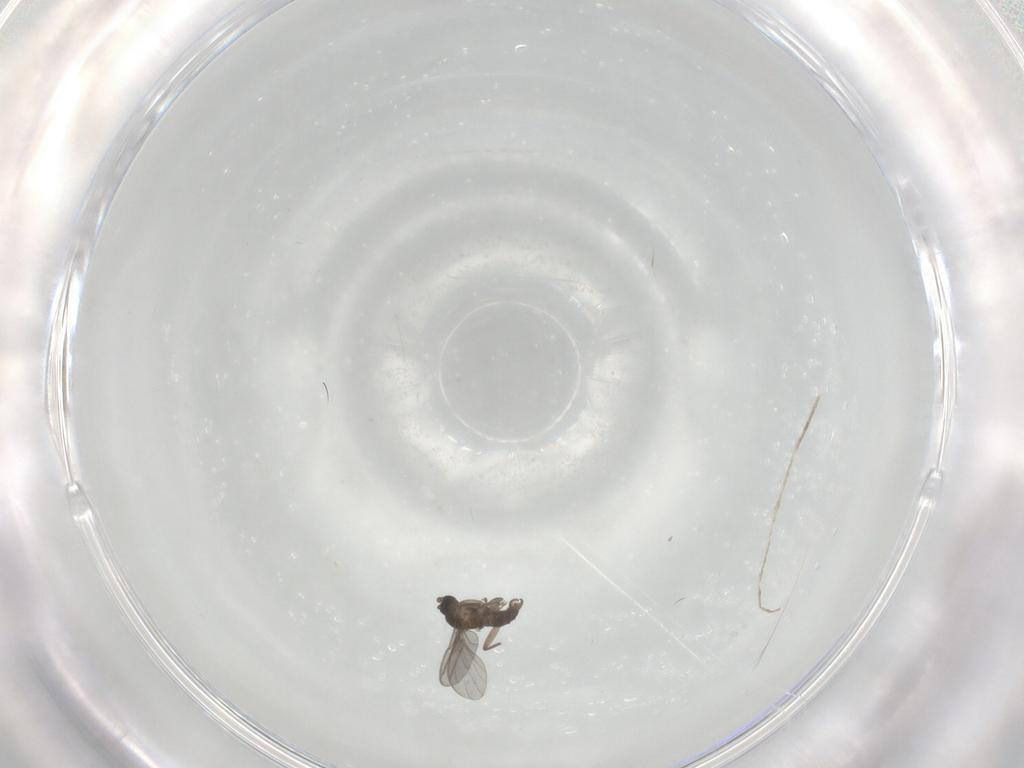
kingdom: Animalia
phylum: Arthropoda
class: Insecta
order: Diptera
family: Sciaridae
